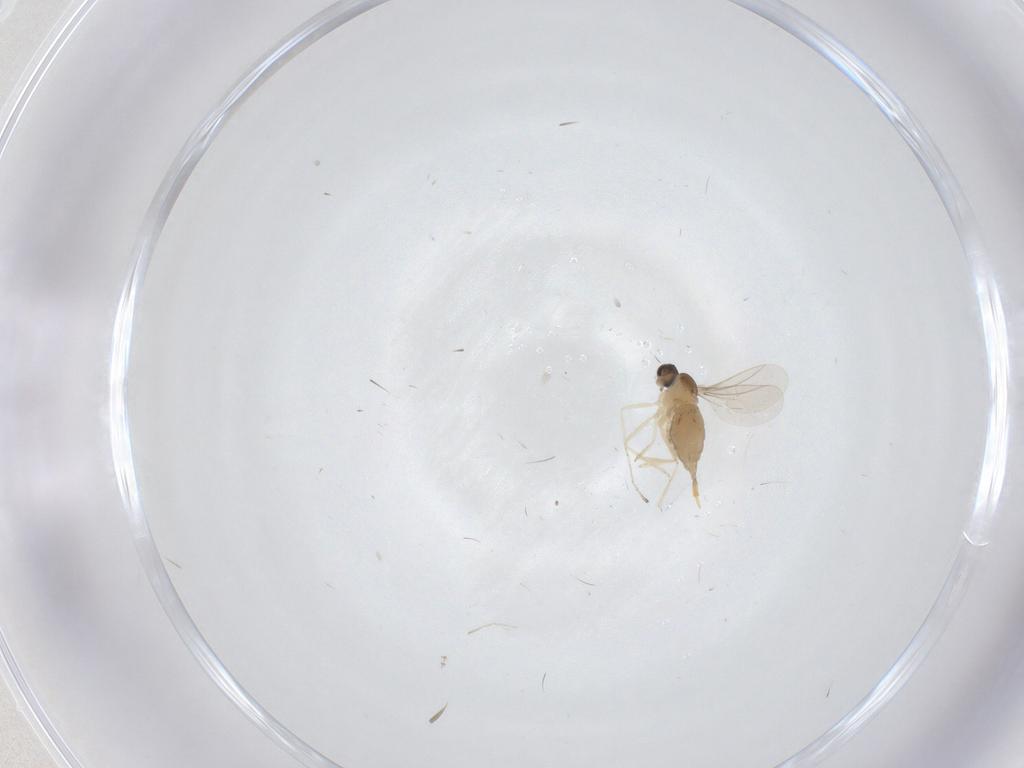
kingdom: Animalia
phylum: Arthropoda
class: Insecta
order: Diptera
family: Cecidomyiidae
